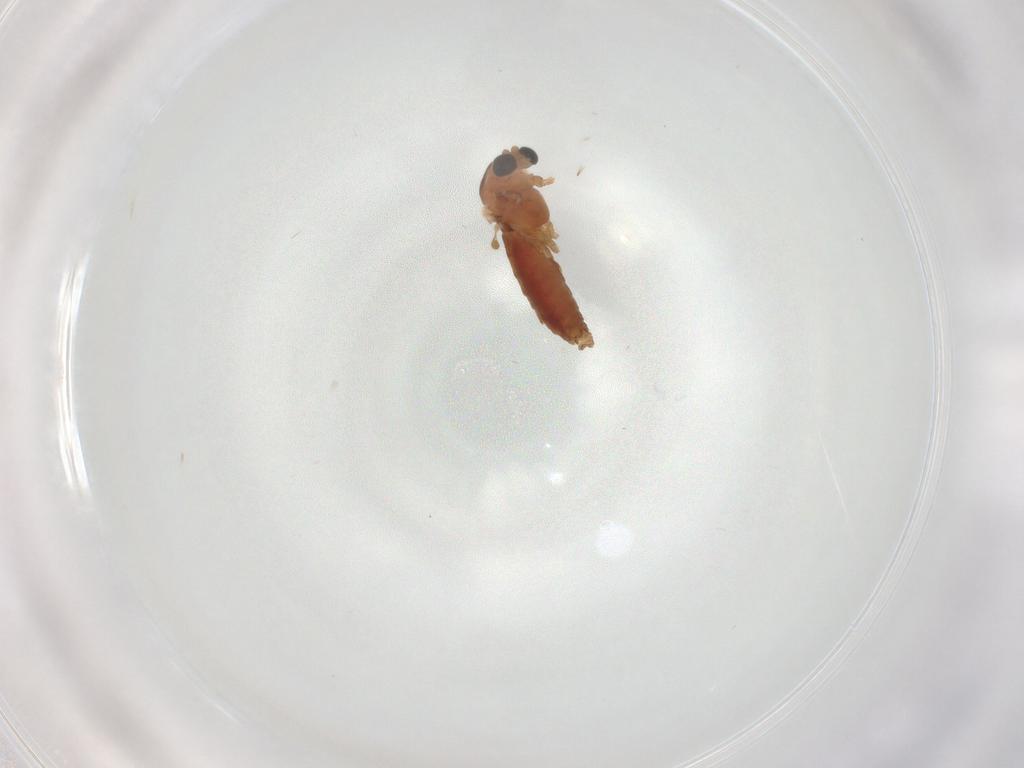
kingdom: Animalia
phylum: Arthropoda
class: Insecta
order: Diptera
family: Chironomidae
